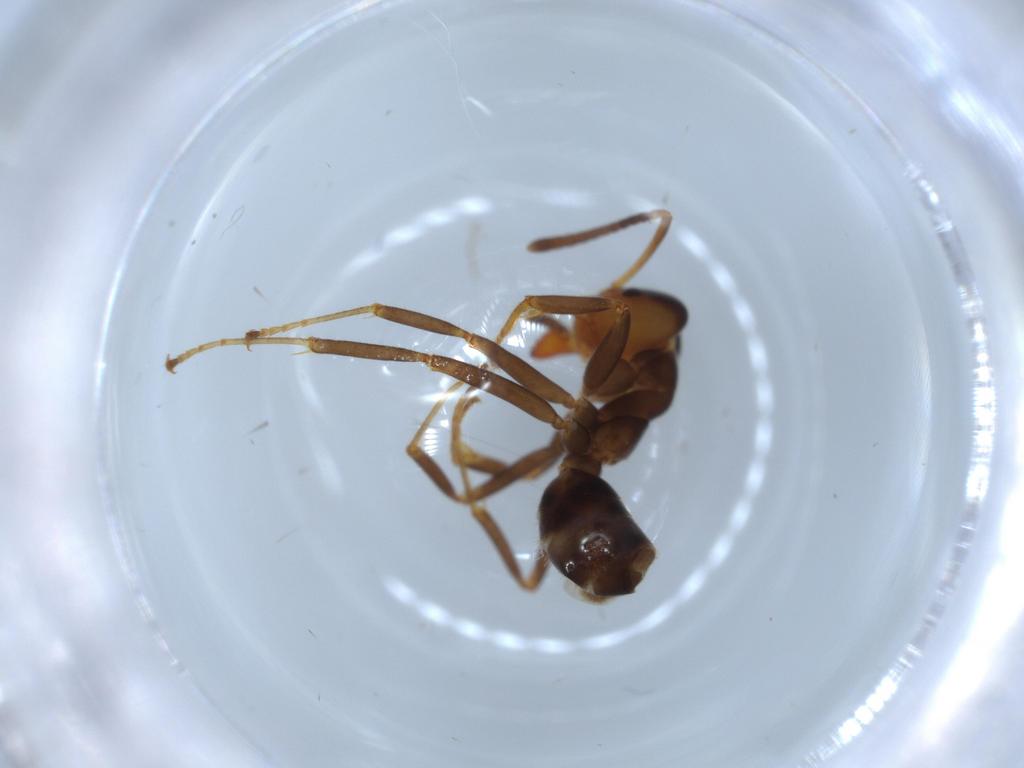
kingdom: Animalia
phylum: Arthropoda
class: Insecta
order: Hymenoptera
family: Formicidae
